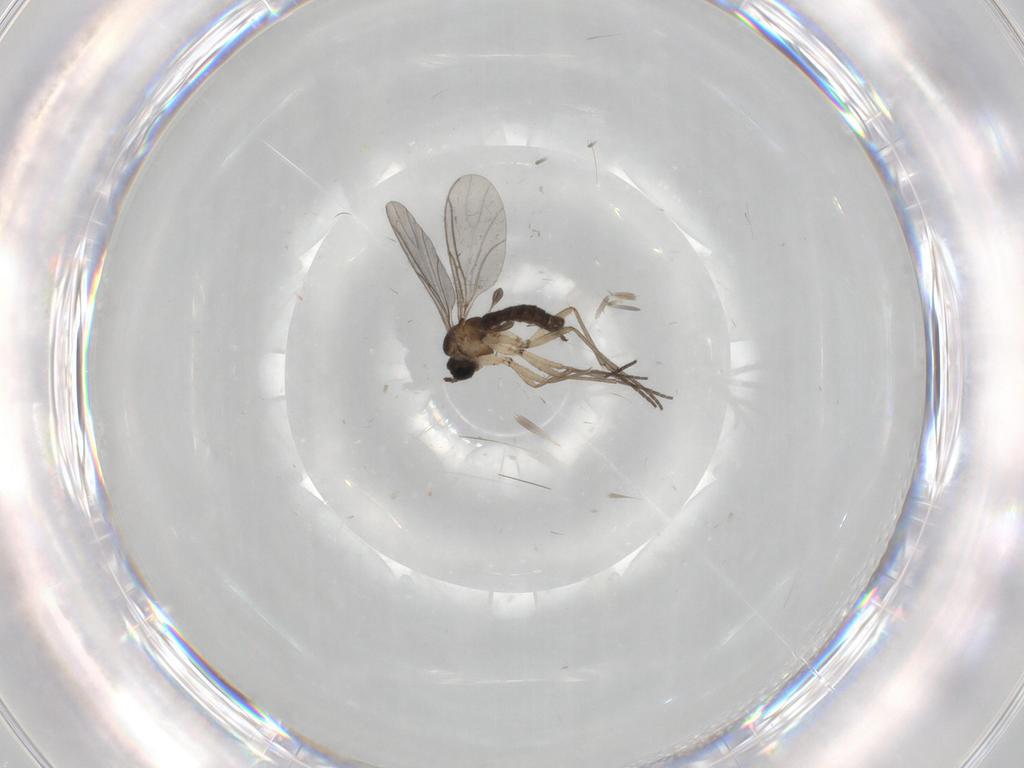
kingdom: Animalia
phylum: Arthropoda
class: Insecta
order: Diptera
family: Sciaridae
